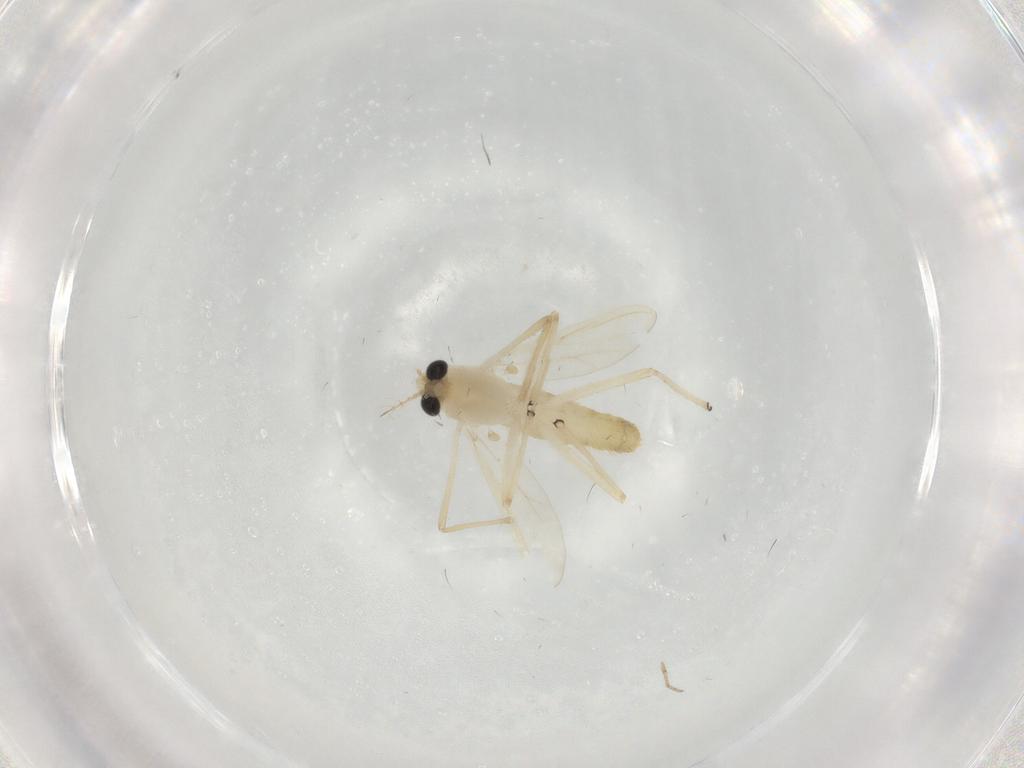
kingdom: Animalia
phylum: Arthropoda
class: Insecta
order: Diptera
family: Chironomidae
